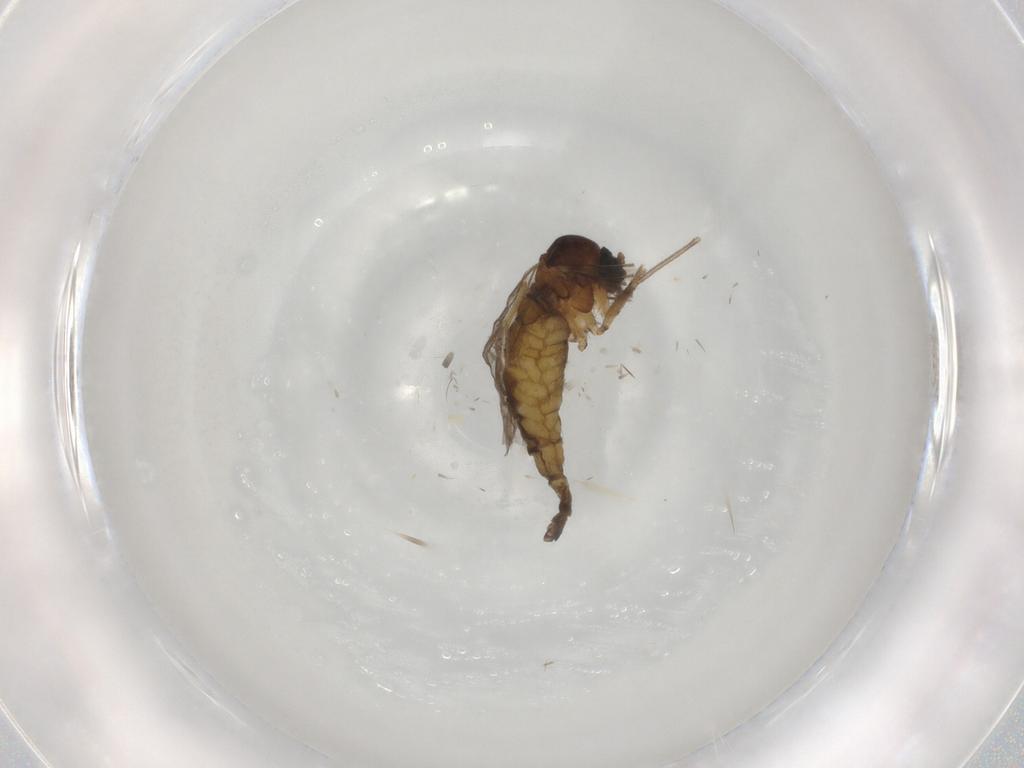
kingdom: Animalia
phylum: Arthropoda
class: Insecta
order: Diptera
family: Sciaridae
